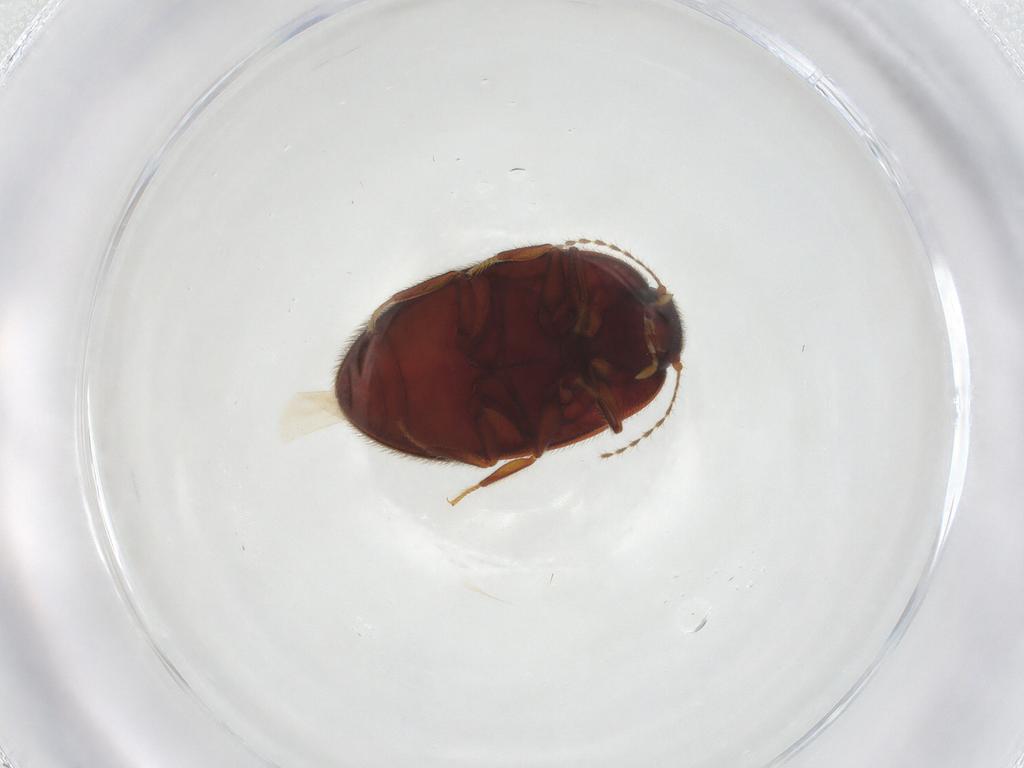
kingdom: Animalia
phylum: Arthropoda
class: Insecta
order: Coleoptera
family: Limnichidae
